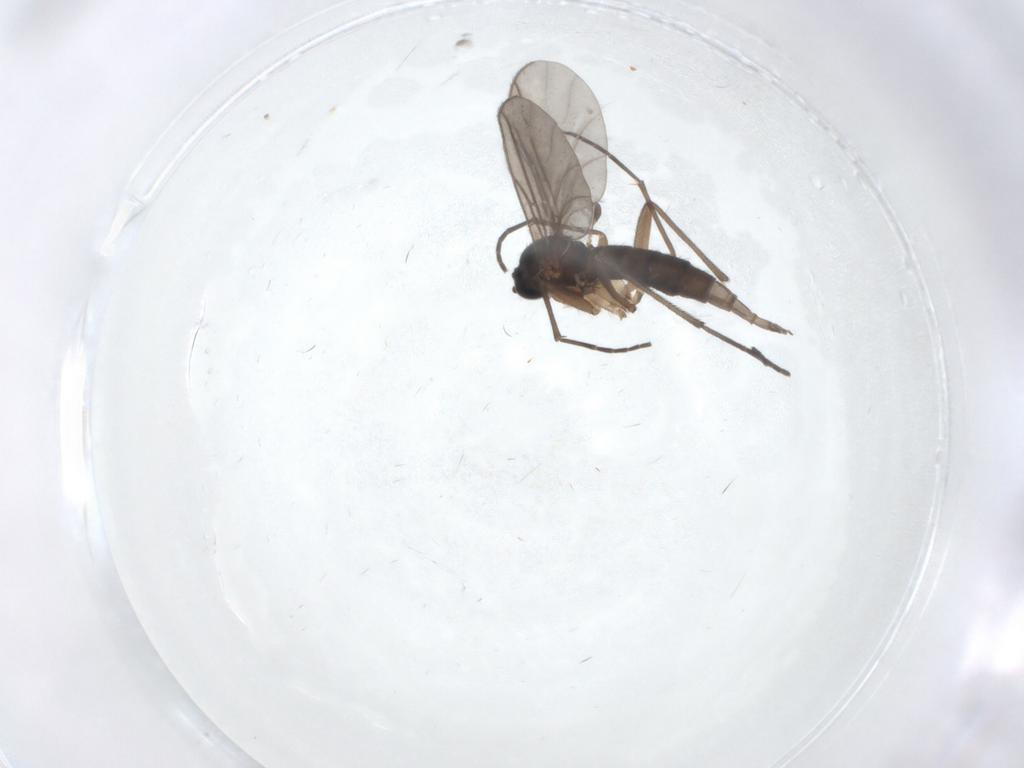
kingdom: Animalia
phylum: Arthropoda
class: Insecta
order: Diptera
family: Sciaridae
